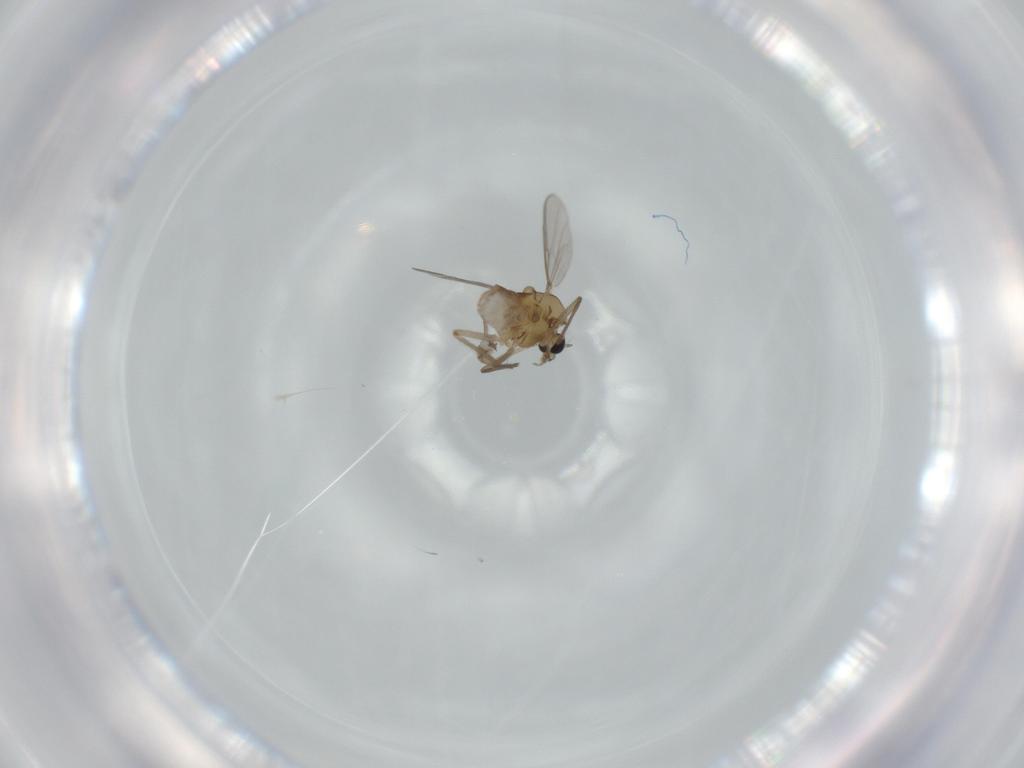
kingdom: Animalia
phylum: Arthropoda
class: Insecta
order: Diptera
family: Chironomidae
